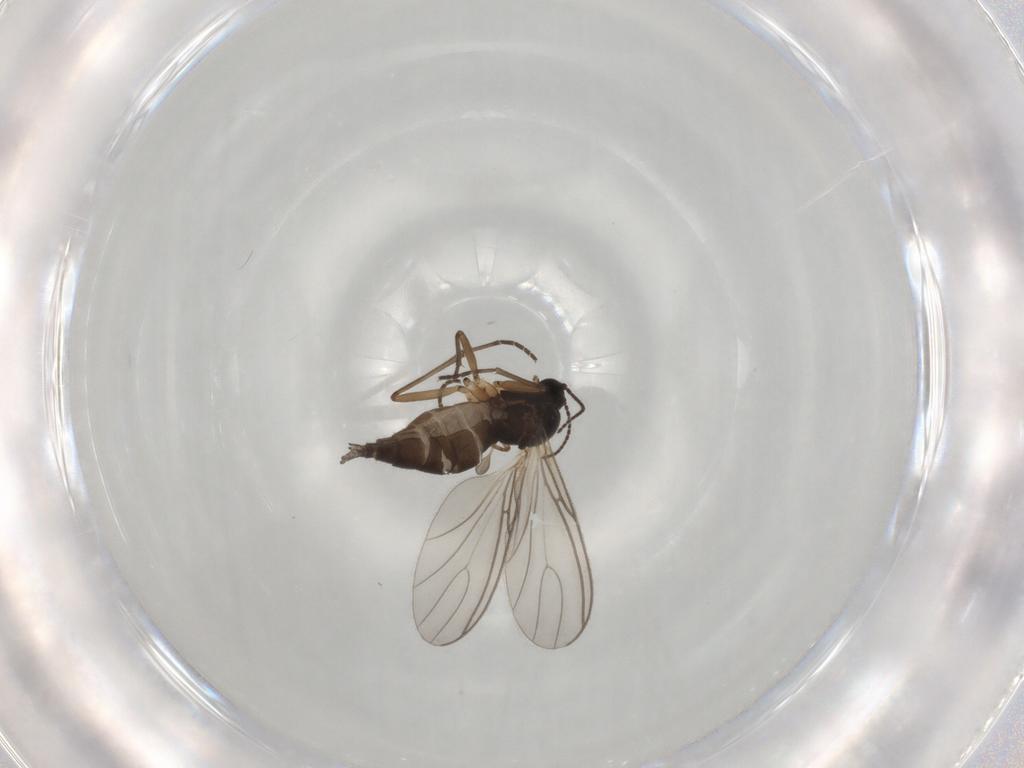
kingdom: Animalia
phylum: Arthropoda
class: Insecta
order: Diptera
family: Sciaridae
